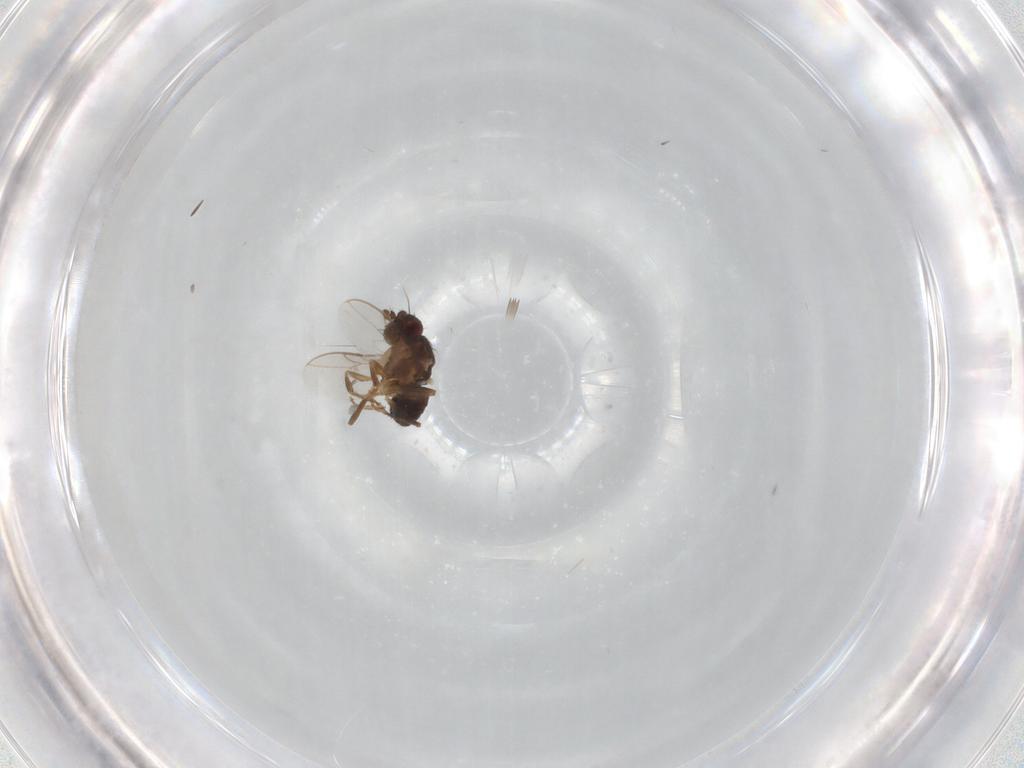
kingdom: Animalia
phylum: Arthropoda
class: Insecta
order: Diptera
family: Sphaeroceridae
